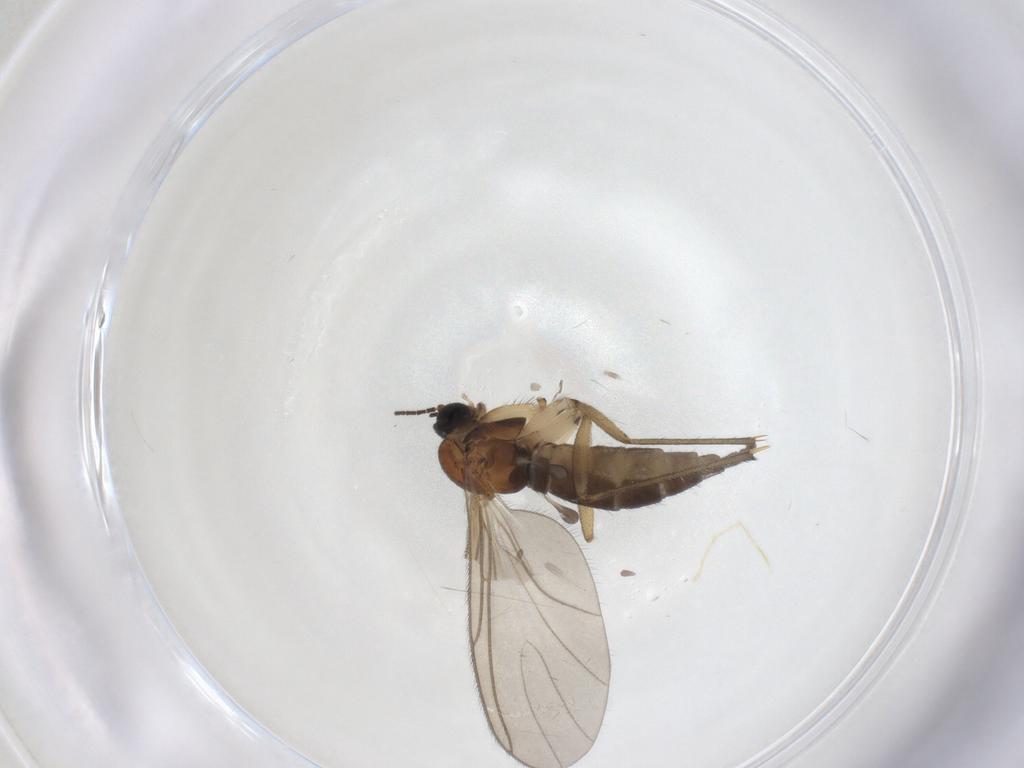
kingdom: Animalia
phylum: Arthropoda
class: Insecta
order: Diptera
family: Sciaridae
